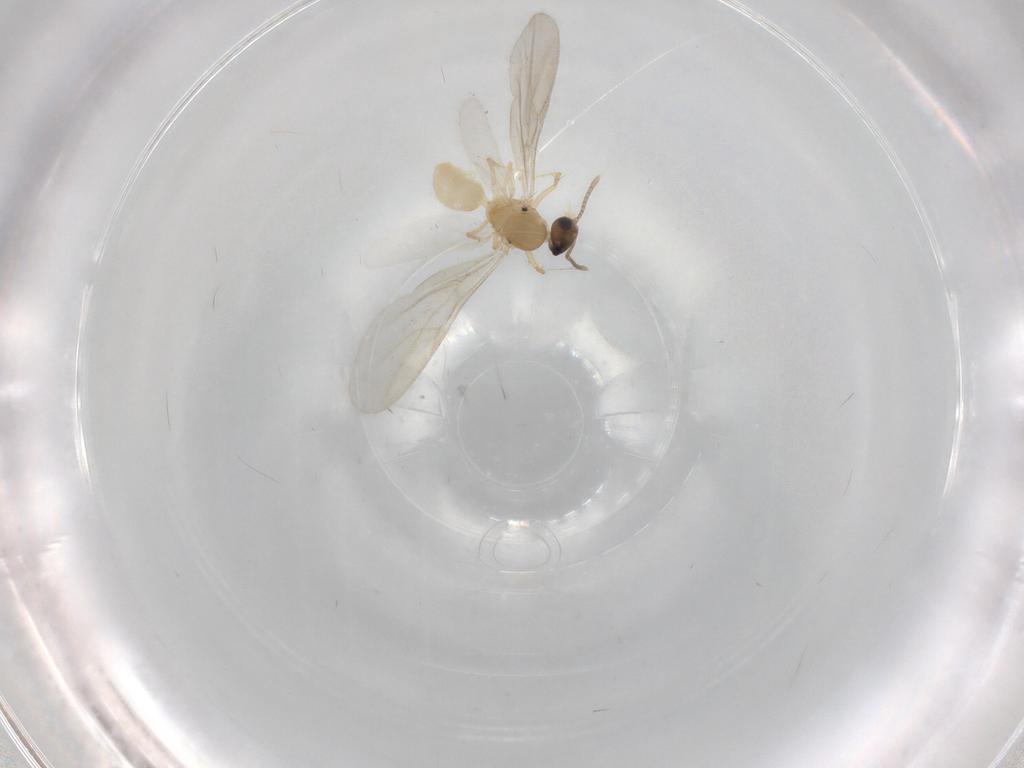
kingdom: Animalia
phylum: Arthropoda
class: Insecta
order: Hymenoptera
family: Formicidae
